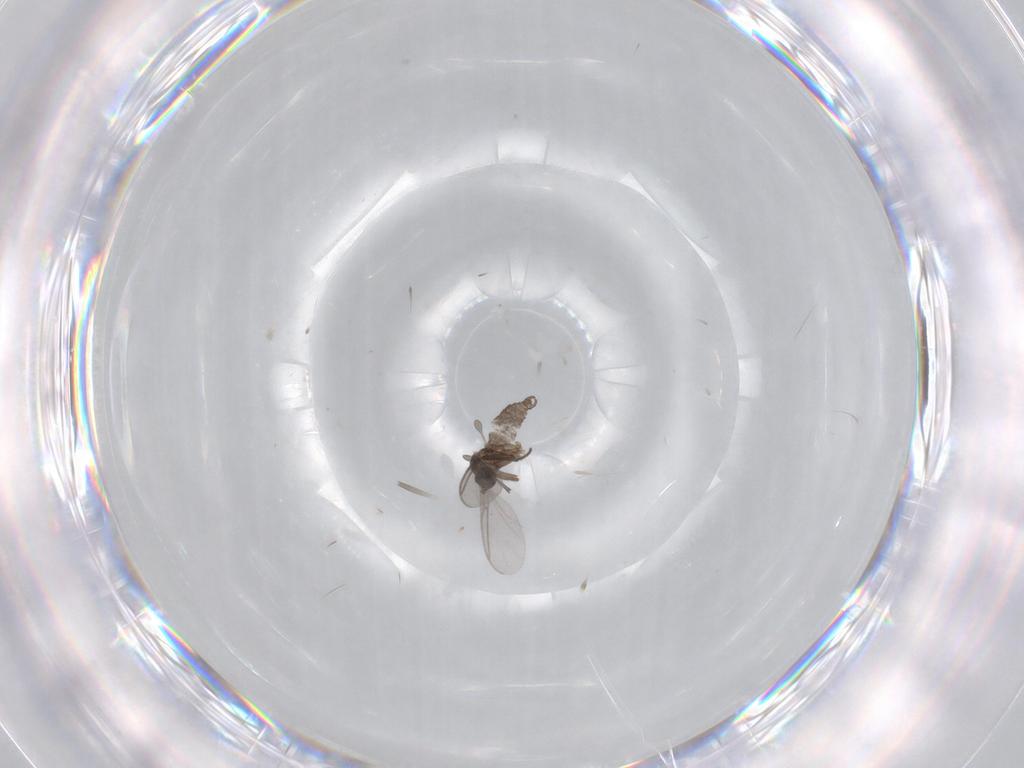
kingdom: Animalia
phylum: Arthropoda
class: Insecta
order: Diptera
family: Sciaridae
